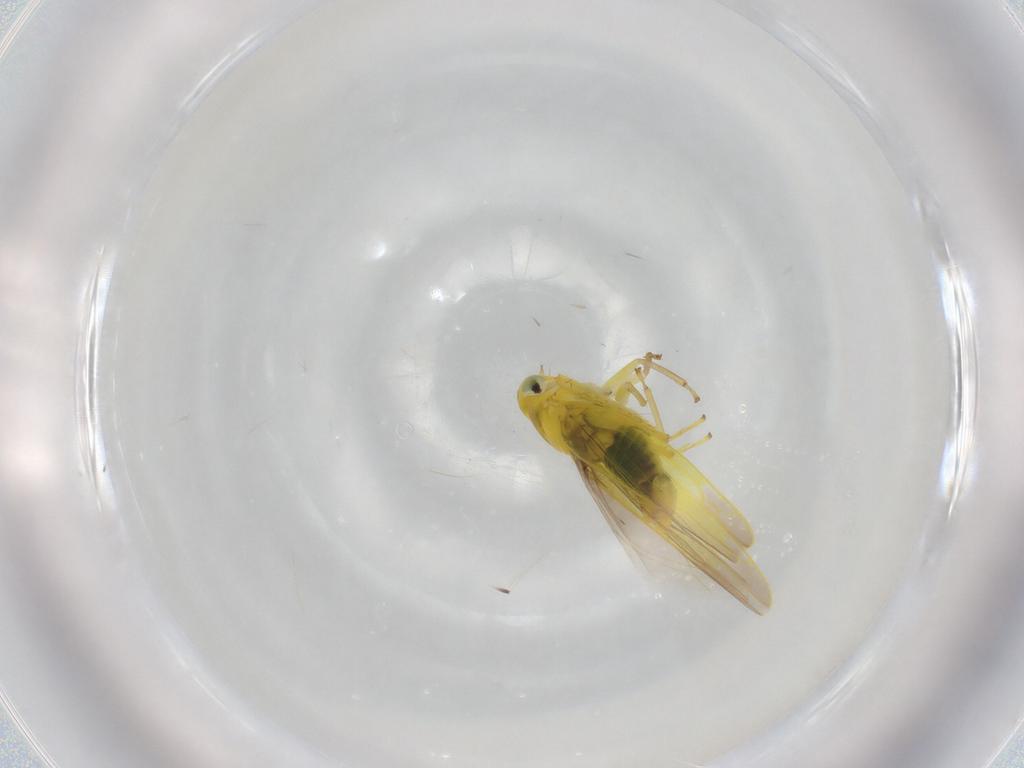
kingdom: Animalia
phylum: Arthropoda
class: Insecta
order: Hemiptera
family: Cicadellidae
